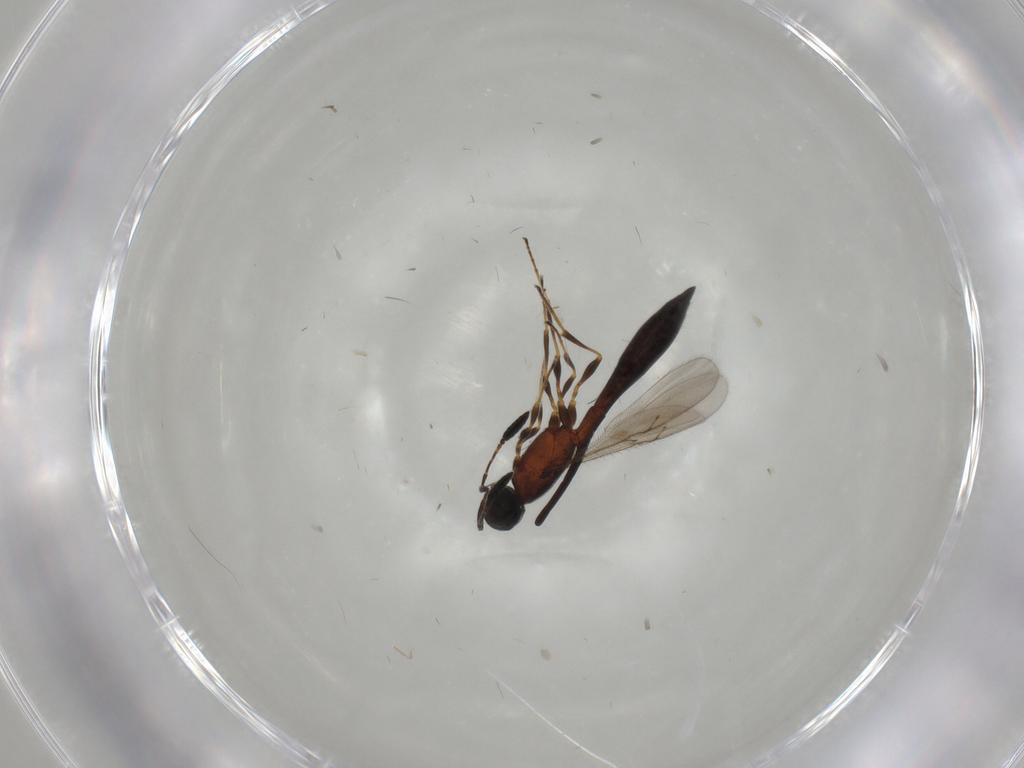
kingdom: Animalia
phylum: Arthropoda
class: Insecta
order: Hymenoptera
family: Scelionidae
